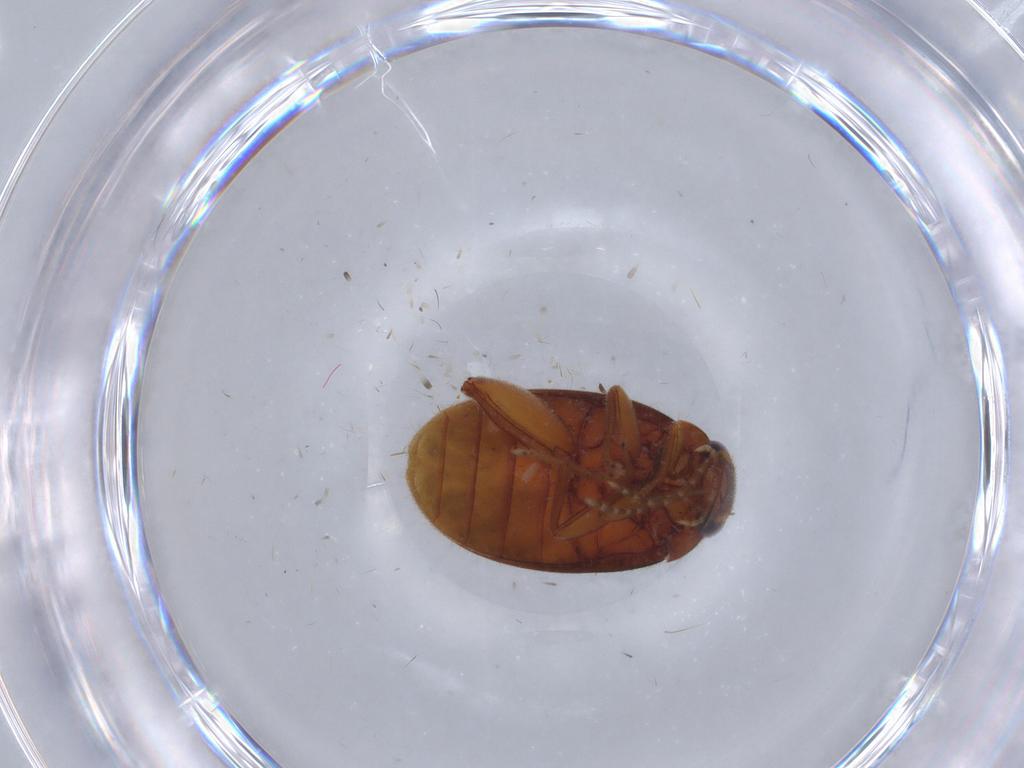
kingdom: Animalia
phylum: Arthropoda
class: Insecta
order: Coleoptera
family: Scirtidae
